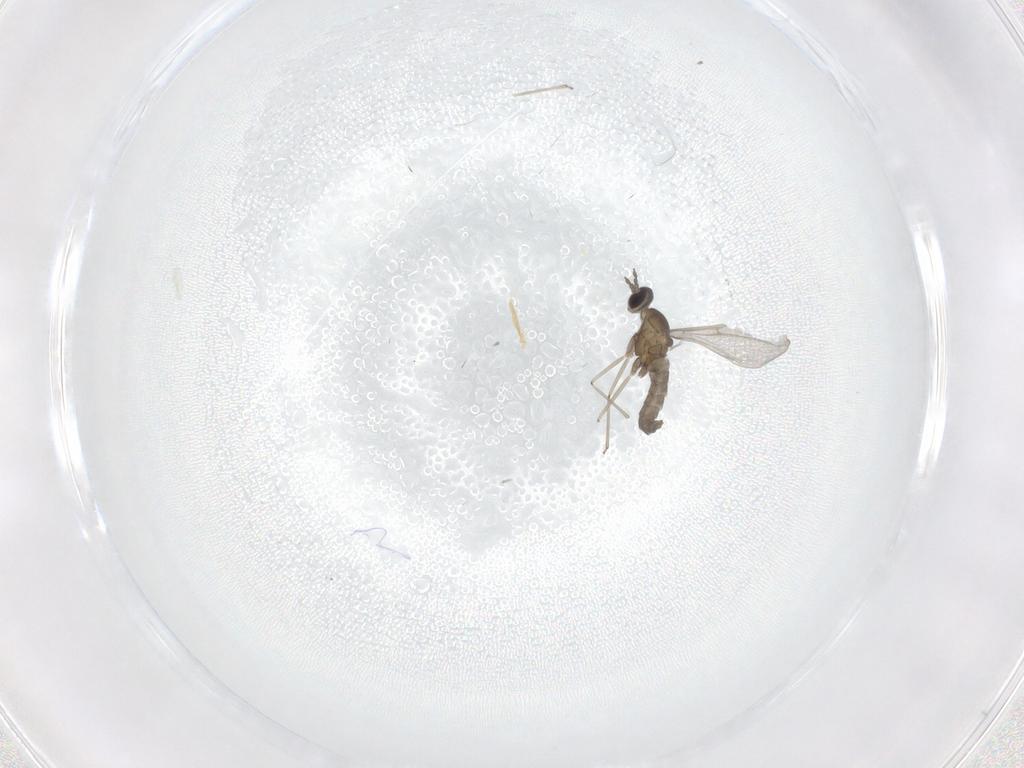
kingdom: Animalia
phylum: Arthropoda
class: Insecta
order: Diptera
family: Cecidomyiidae
